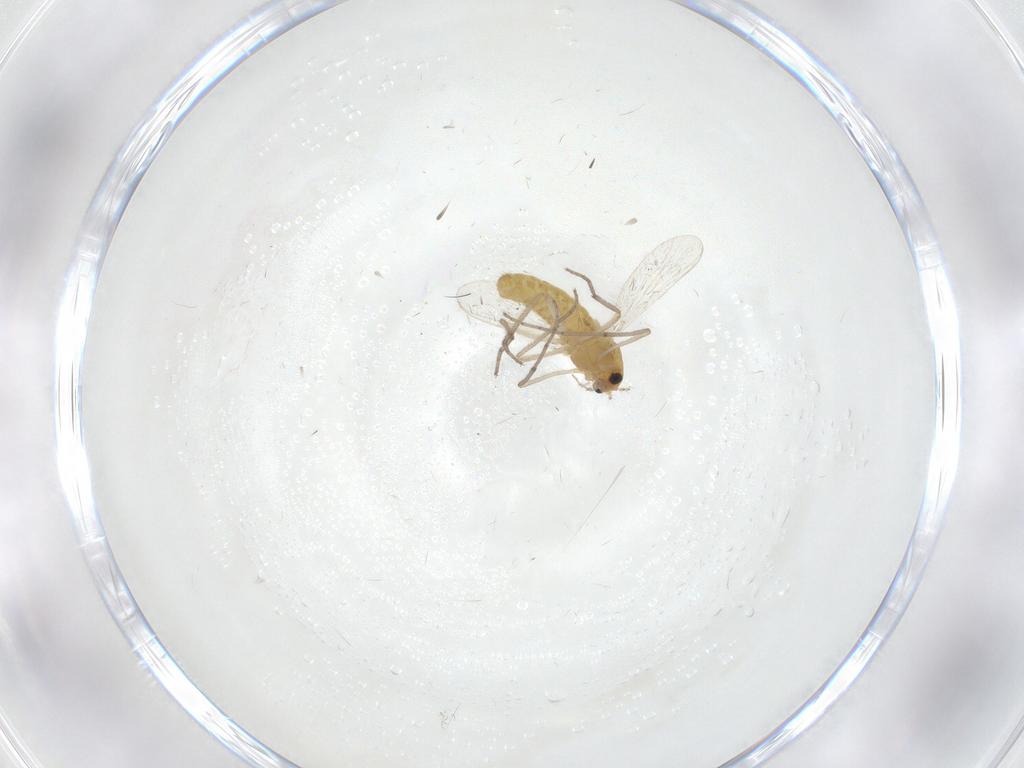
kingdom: Animalia
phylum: Arthropoda
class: Insecta
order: Diptera
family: Chironomidae
